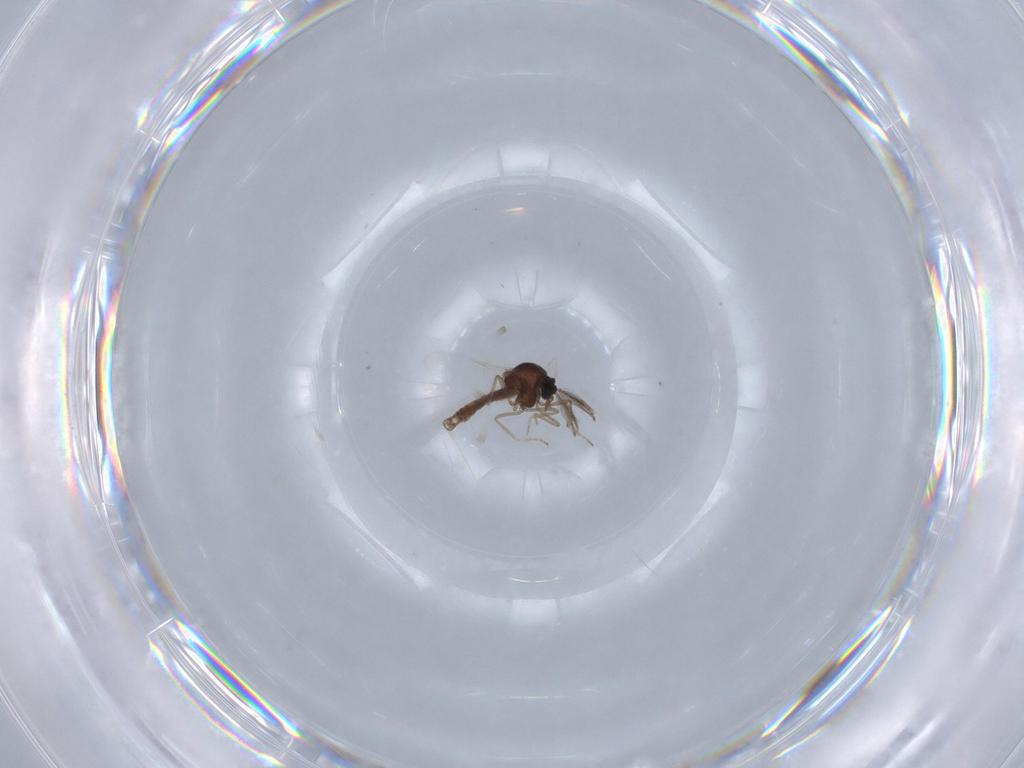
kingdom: Animalia
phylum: Arthropoda
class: Insecta
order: Diptera
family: Ceratopogonidae
